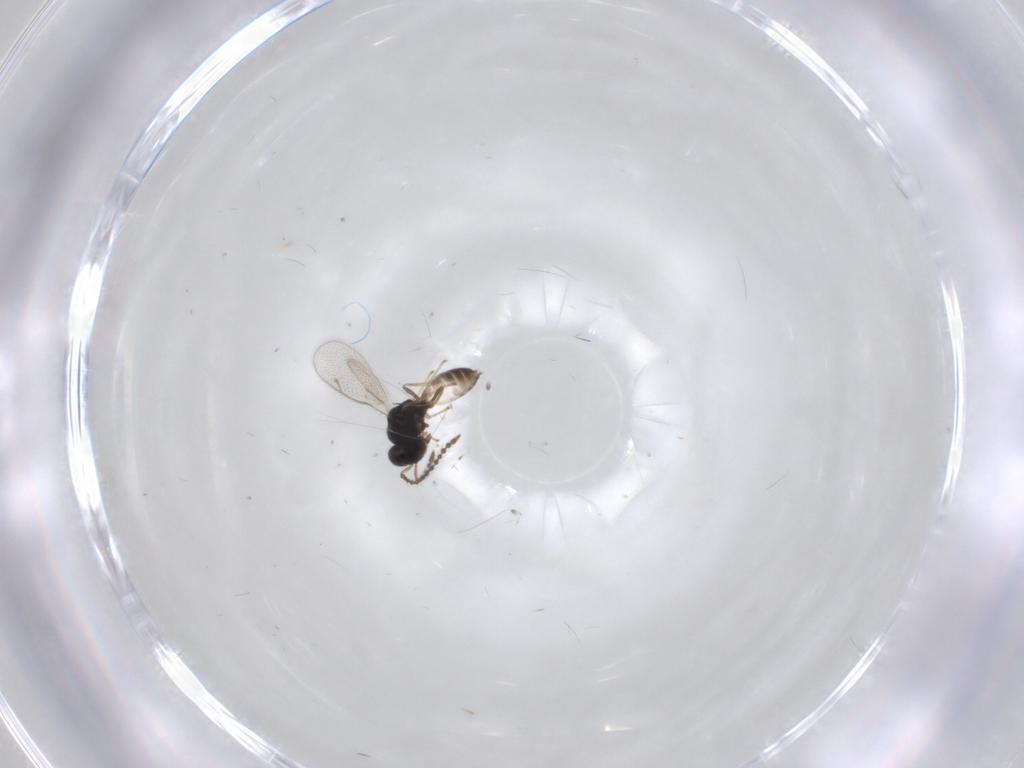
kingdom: Animalia
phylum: Arthropoda
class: Insecta
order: Hymenoptera
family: Pteromalidae
